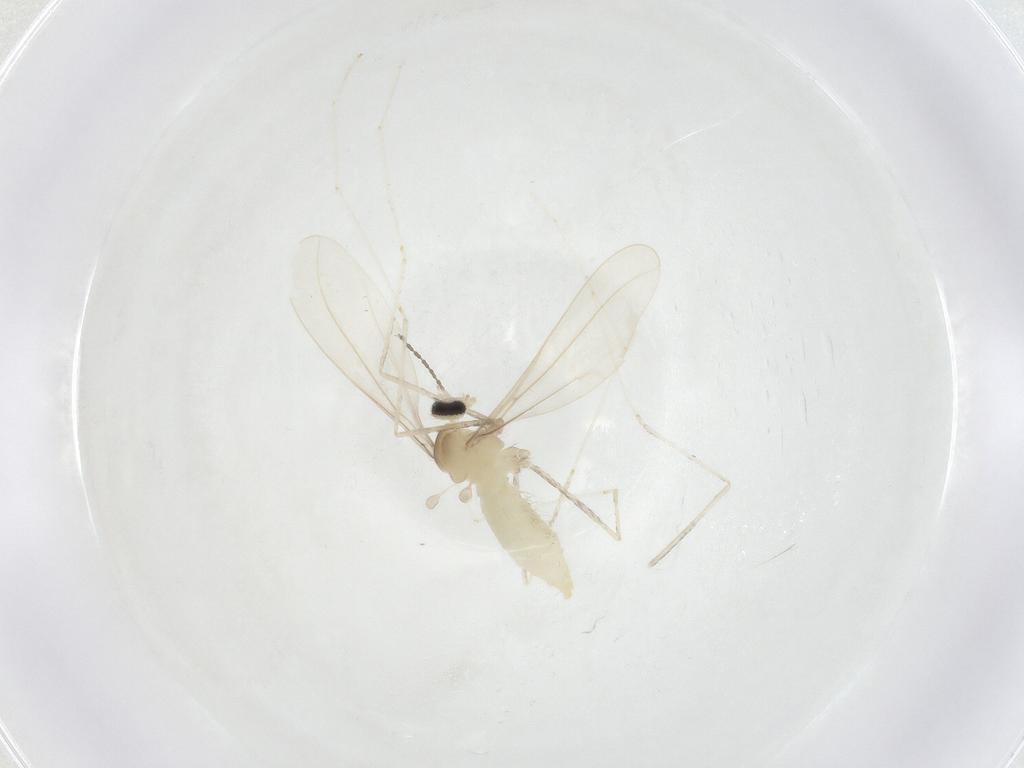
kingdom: Animalia
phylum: Arthropoda
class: Insecta
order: Diptera
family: Cecidomyiidae
